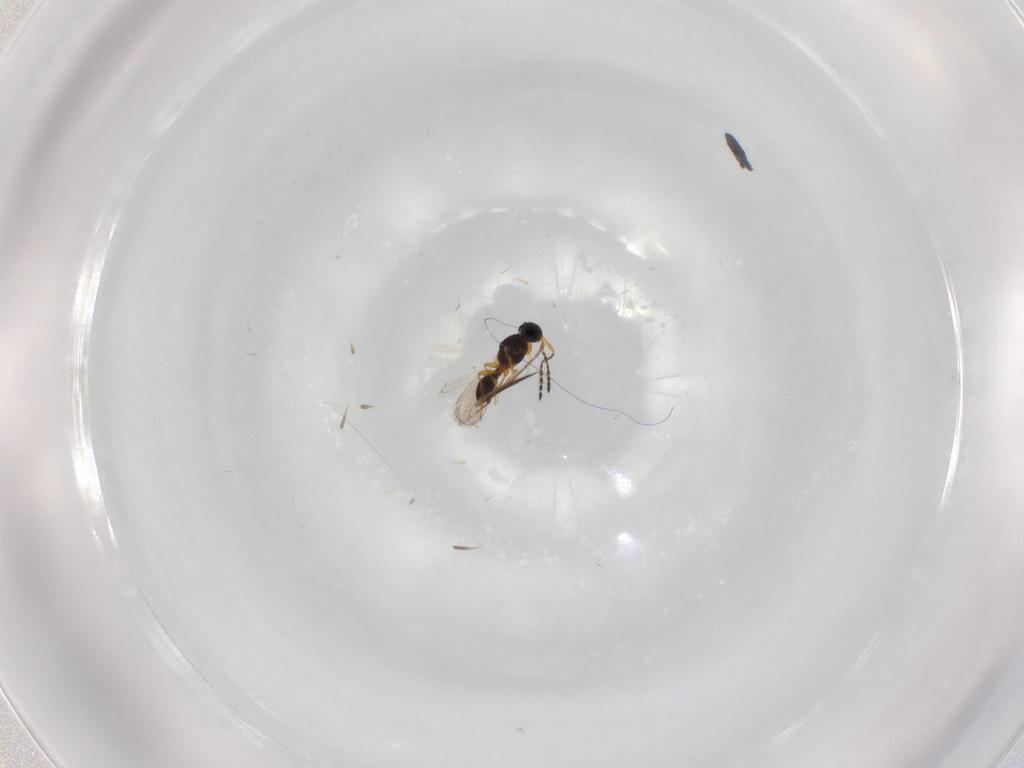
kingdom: Animalia
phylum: Arthropoda
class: Insecta
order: Hymenoptera
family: Platygastridae
